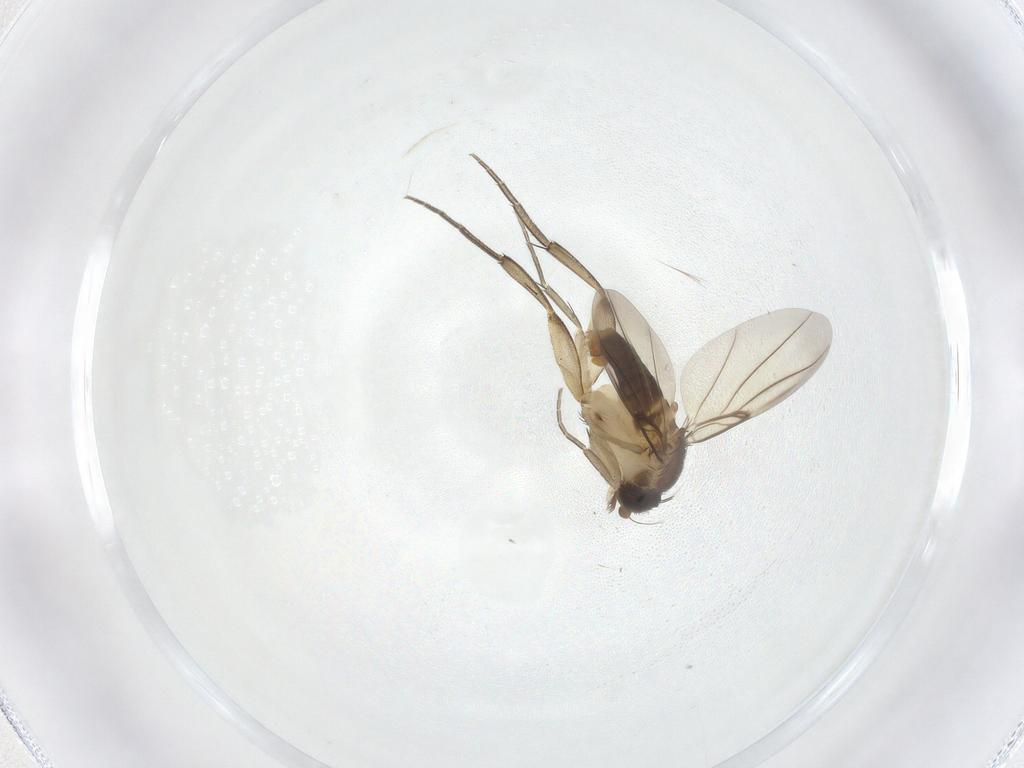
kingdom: Animalia
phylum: Arthropoda
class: Insecta
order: Diptera
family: Phoridae
